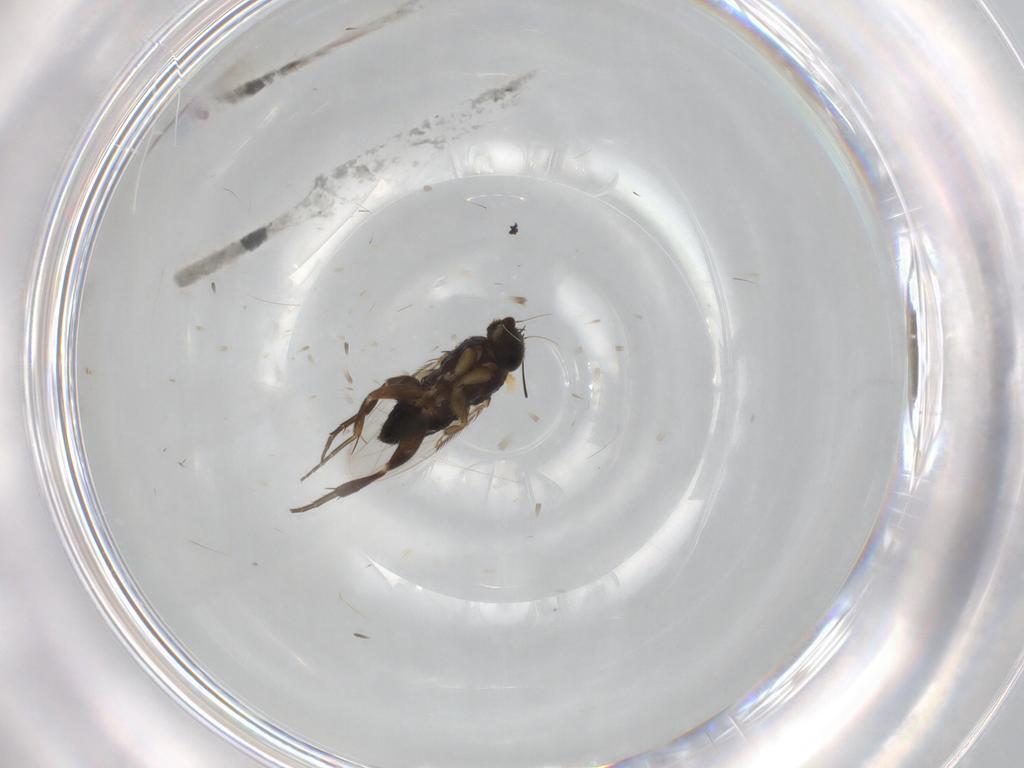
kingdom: Animalia
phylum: Arthropoda
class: Insecta
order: Diptera
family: Phoridae
